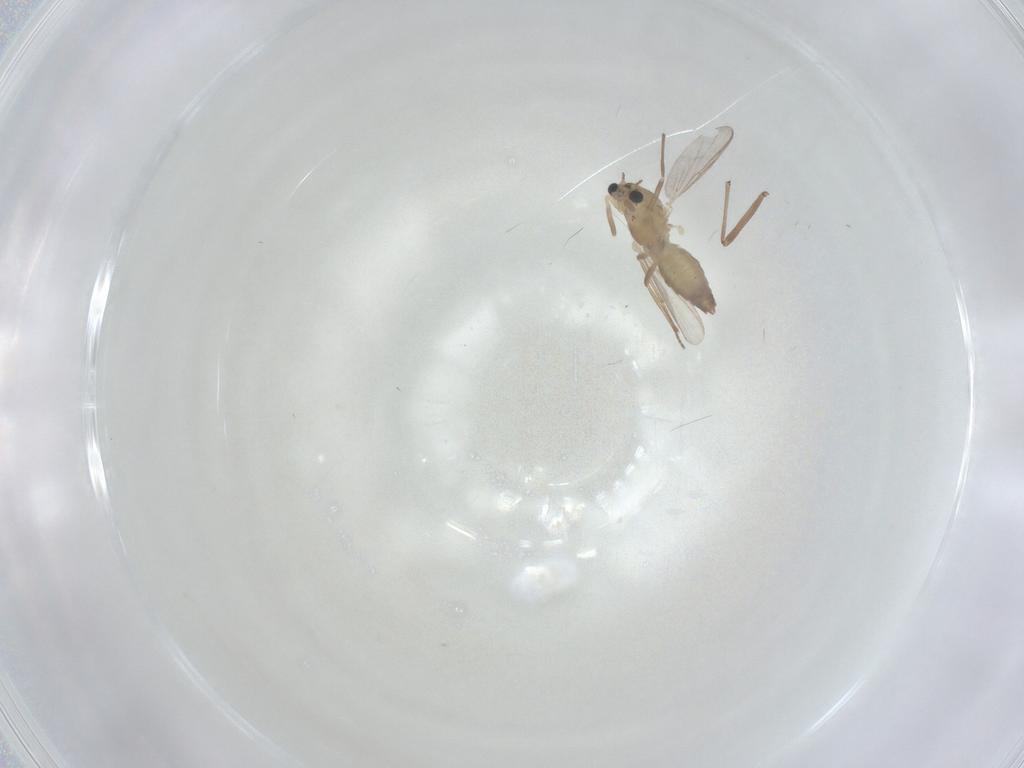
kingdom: Animalia
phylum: Arthropoda
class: Insecta
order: Diptera
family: Chironomidae
